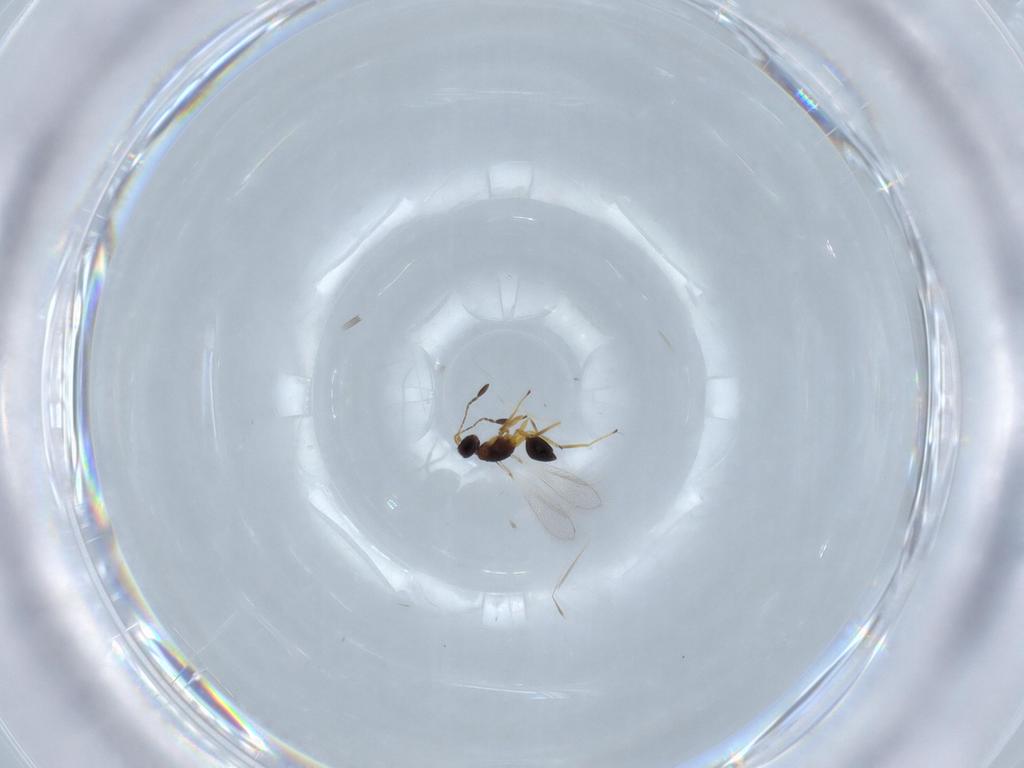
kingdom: Animalia
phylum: Arthropoda
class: Insecta
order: Hymenoptera
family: Mymaridae
